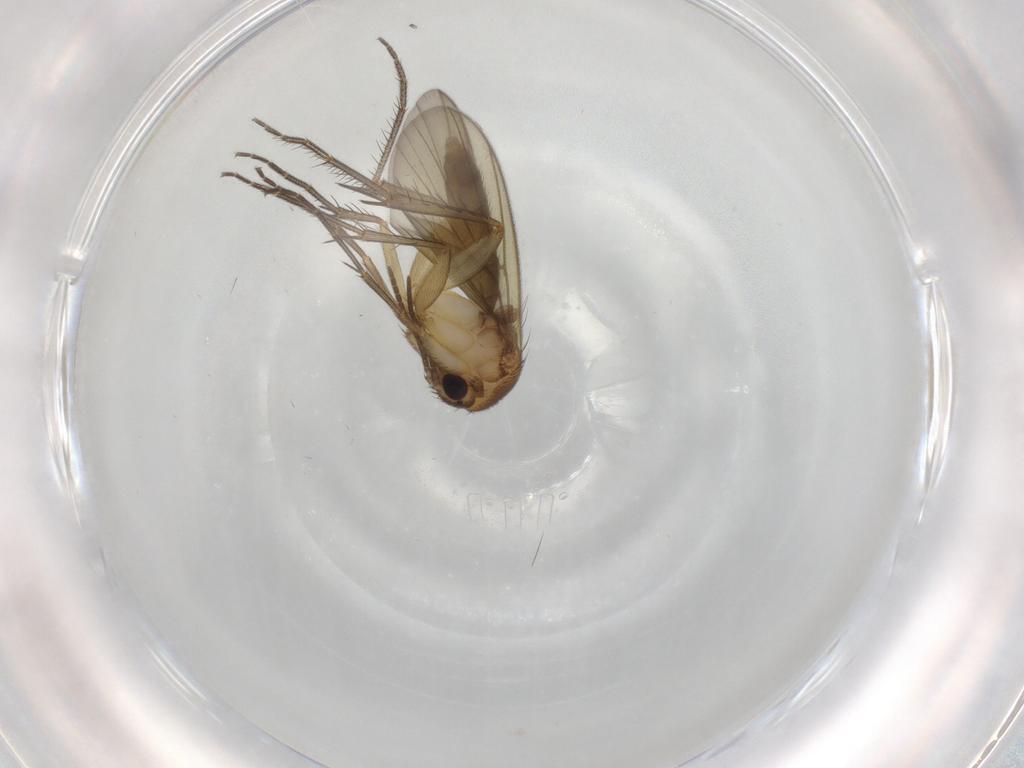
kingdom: Animalia
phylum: Arthropoda
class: Insecta
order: Diptera
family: Mycetophilidae
